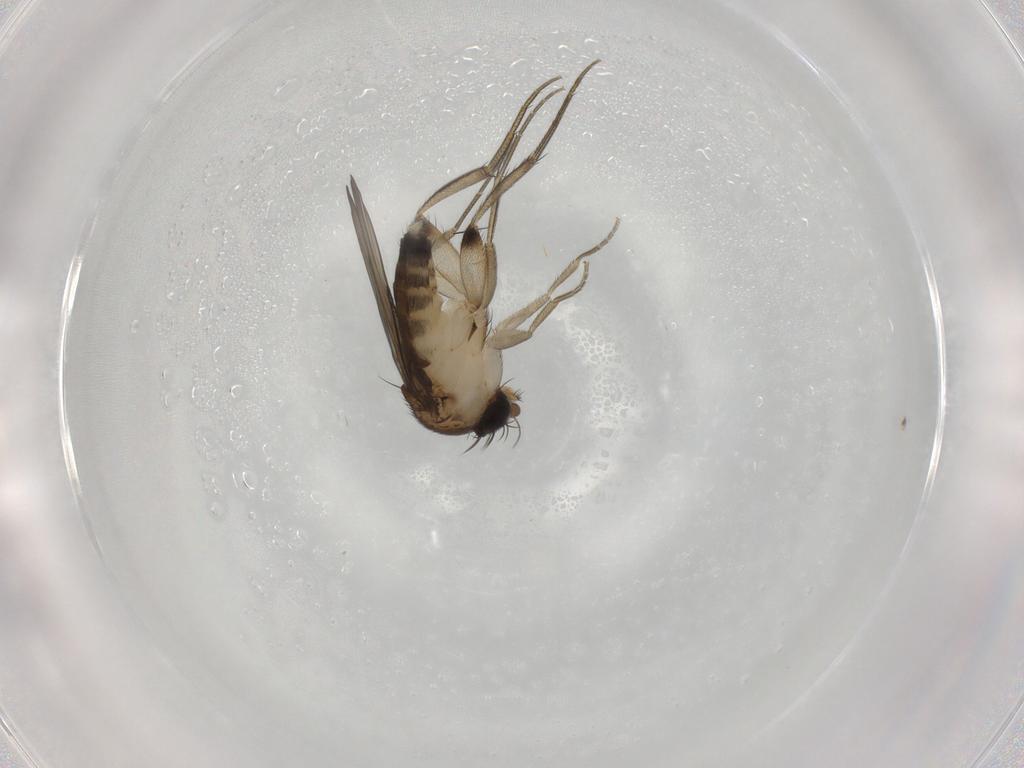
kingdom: Animalia
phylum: Arthropoda
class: Insecta
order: Diptera
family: Phoridae
